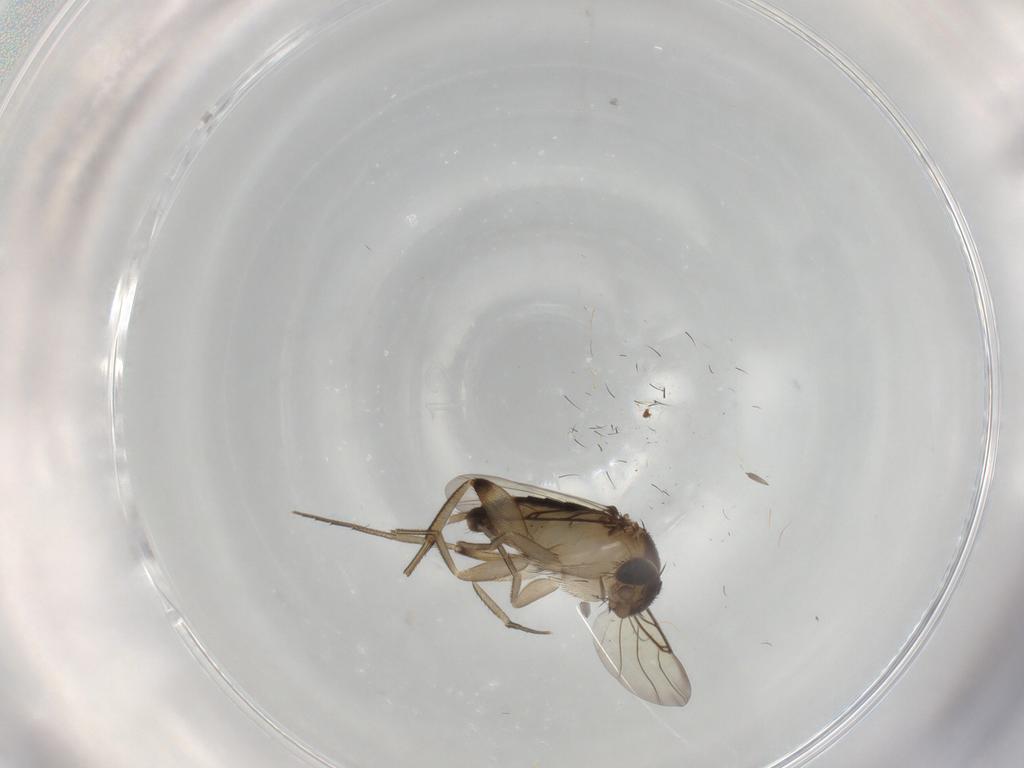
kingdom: Animalia
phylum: Arthropoda
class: Insecta
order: Diptera
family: Phoridae
